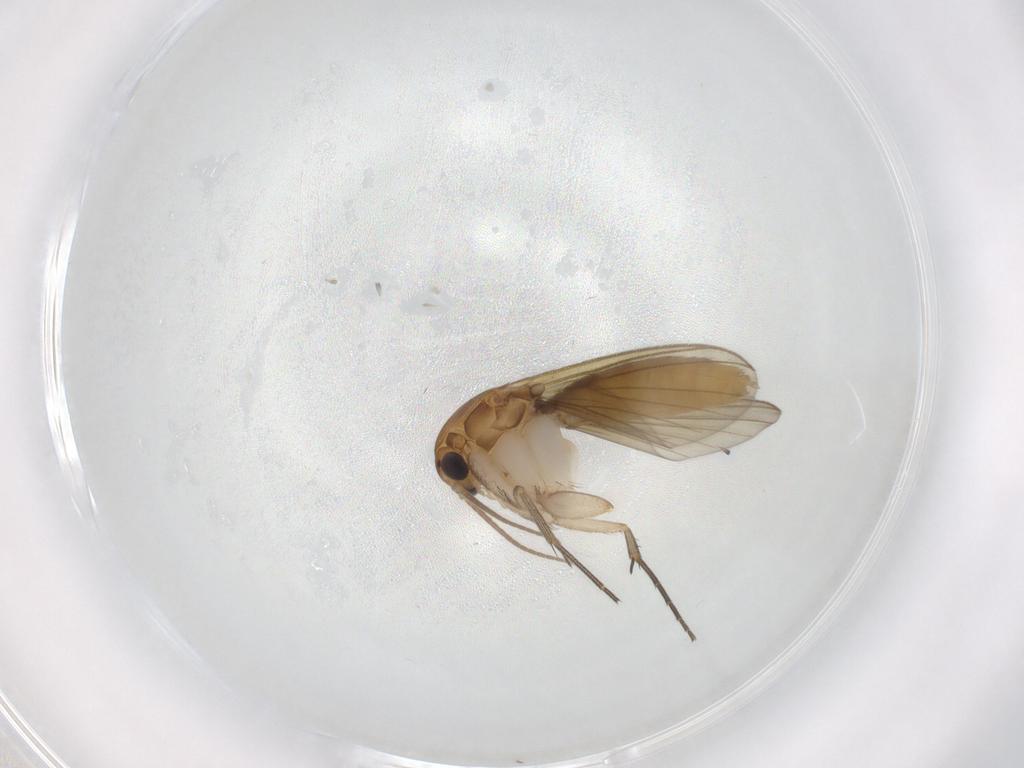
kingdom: Animalia
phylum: Arthropoda
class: Insecta
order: Diptera
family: Mycetophilidae
